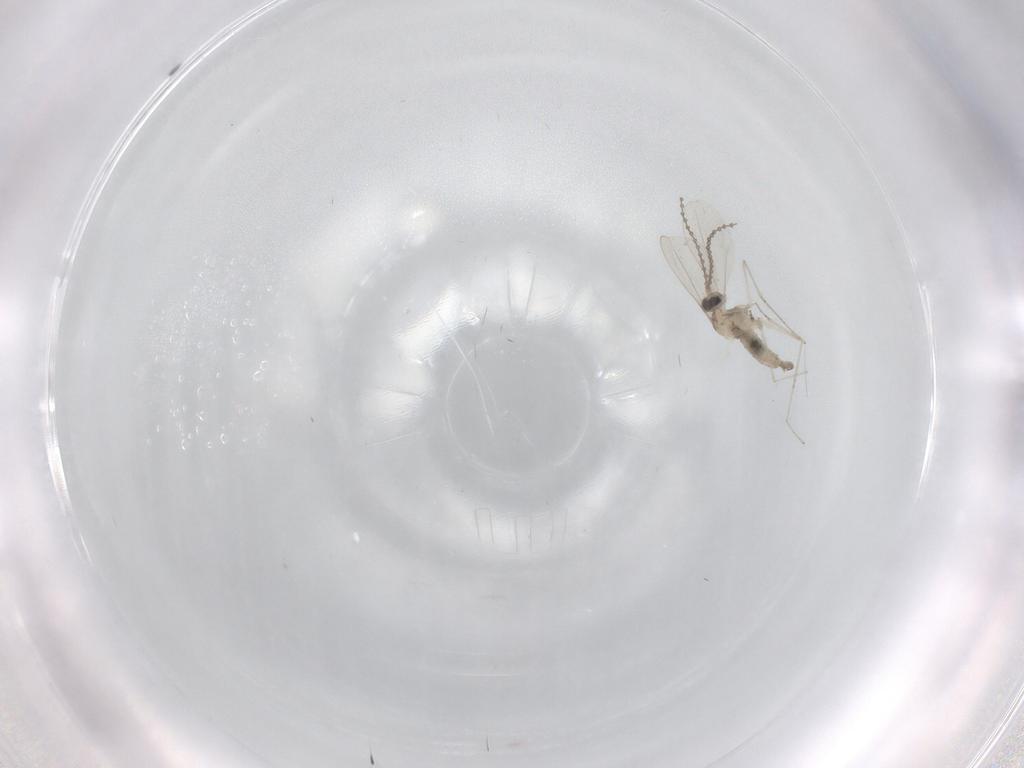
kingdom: Animalia
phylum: Arthropoda
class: Insecta
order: Diptera
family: Cecidomyiidae
